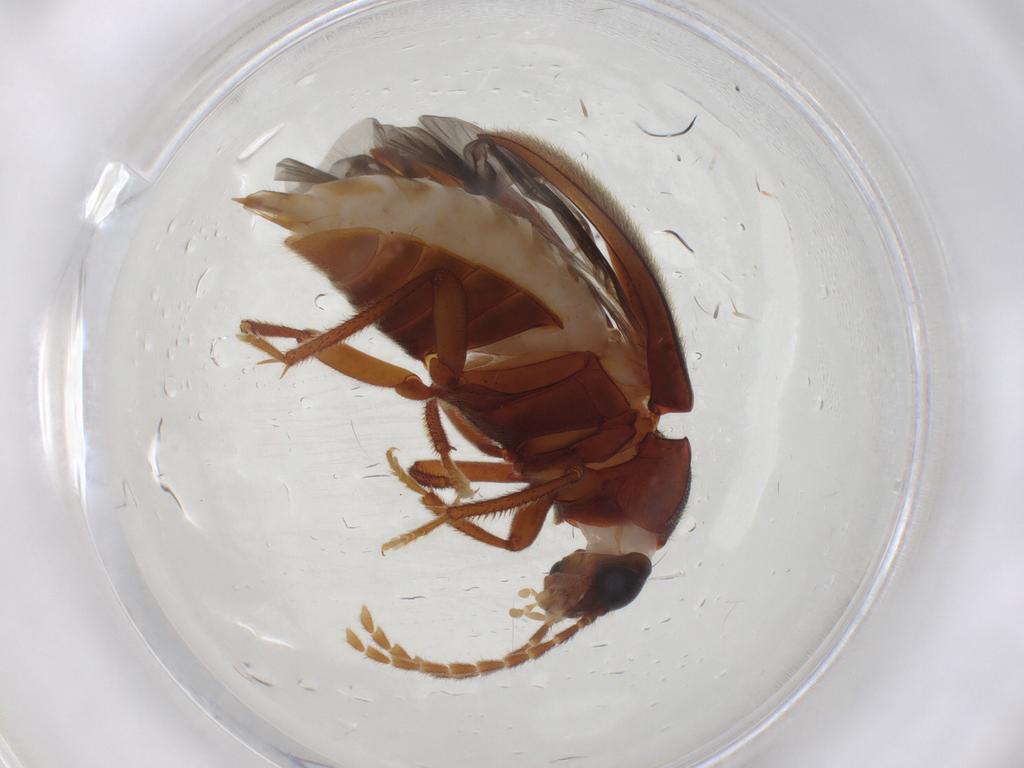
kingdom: Animalia
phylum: Arthropoda
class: Insecta
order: Coleoptera
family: Ptilodactylidae
